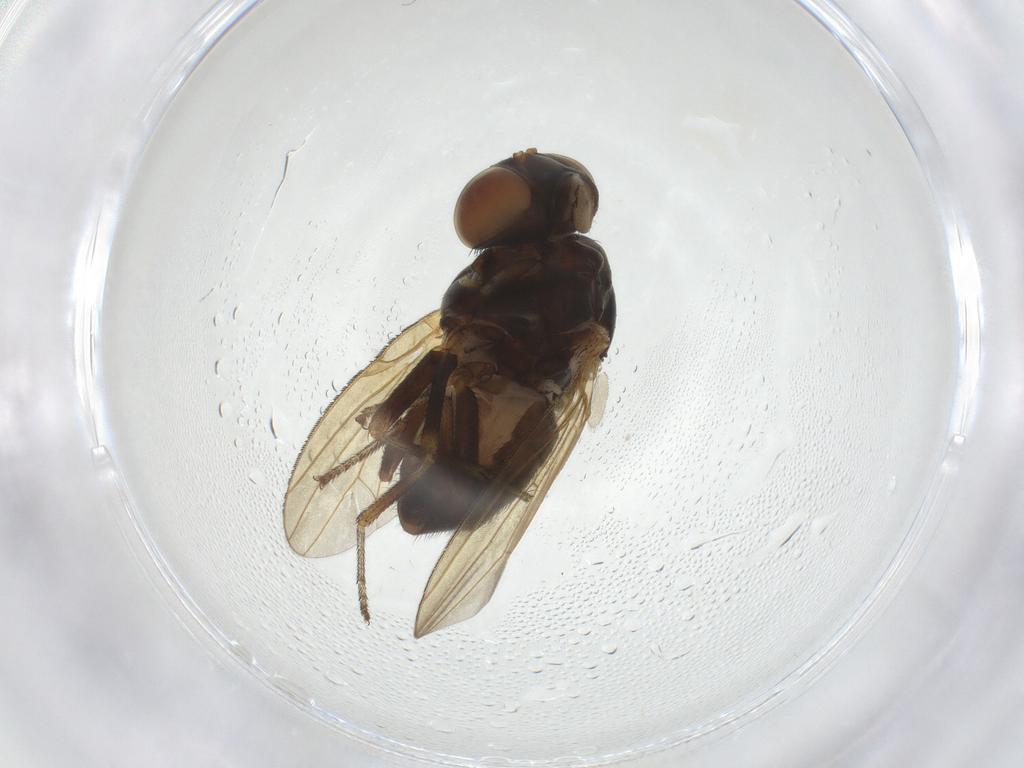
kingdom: Animalia
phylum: Arthropoda
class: Insecta
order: Diptera
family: Lauxaniidae
